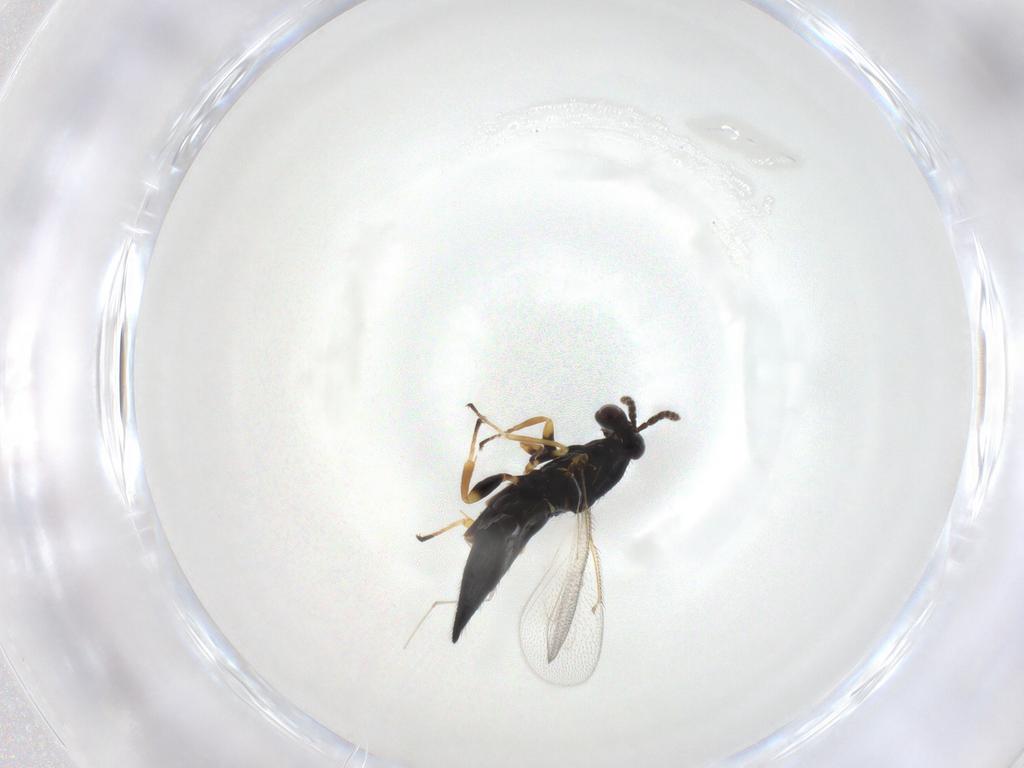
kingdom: Animalia
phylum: Arthropoda
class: Insecta
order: Hymenoptera
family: Eulophidae
